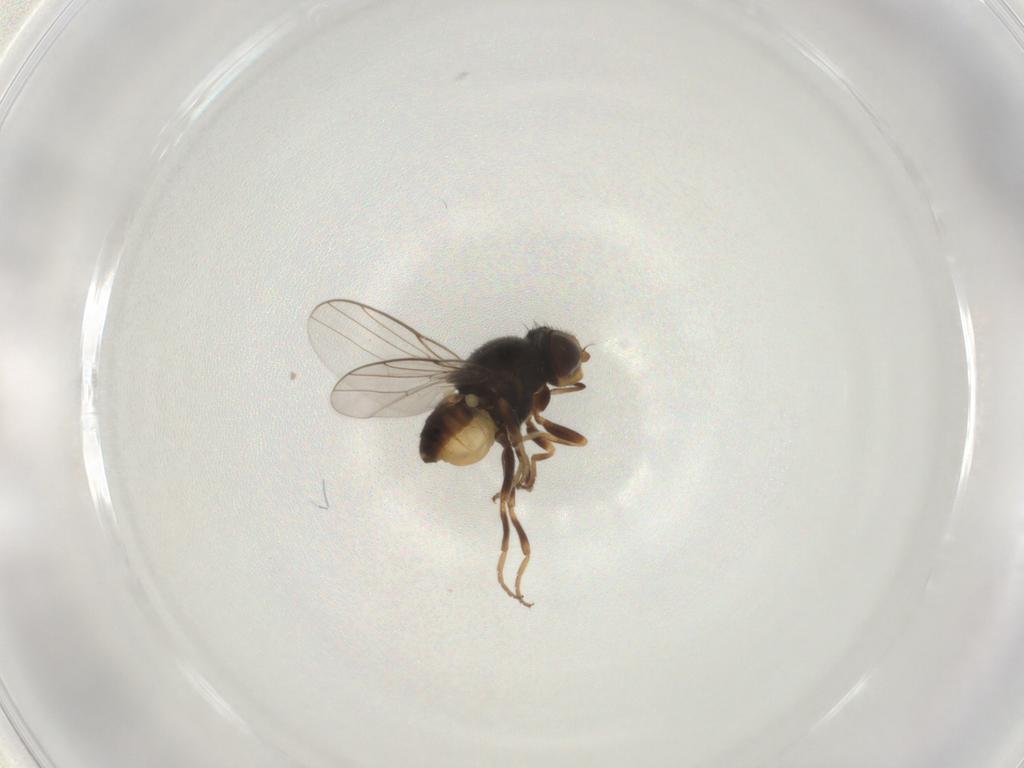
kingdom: Animalia
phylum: Arthropoda
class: Insecta
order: Diptera
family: Chloropidae
